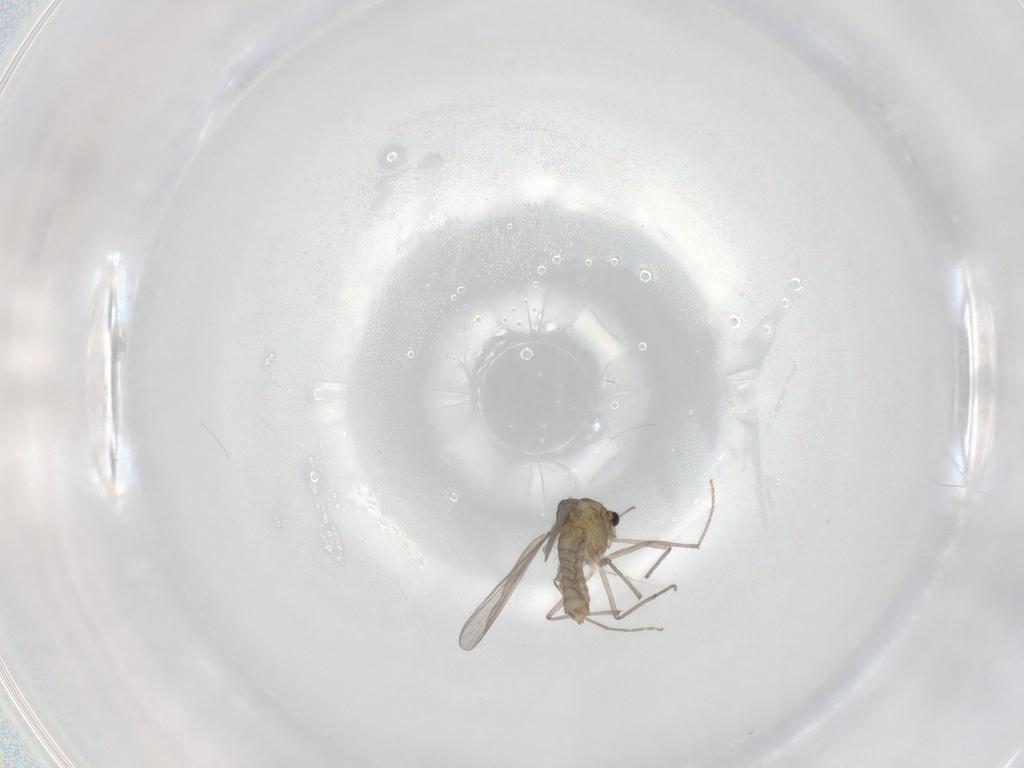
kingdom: Animalia
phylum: Arthropoda
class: Insecta
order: Diptera
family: Chironomidae
